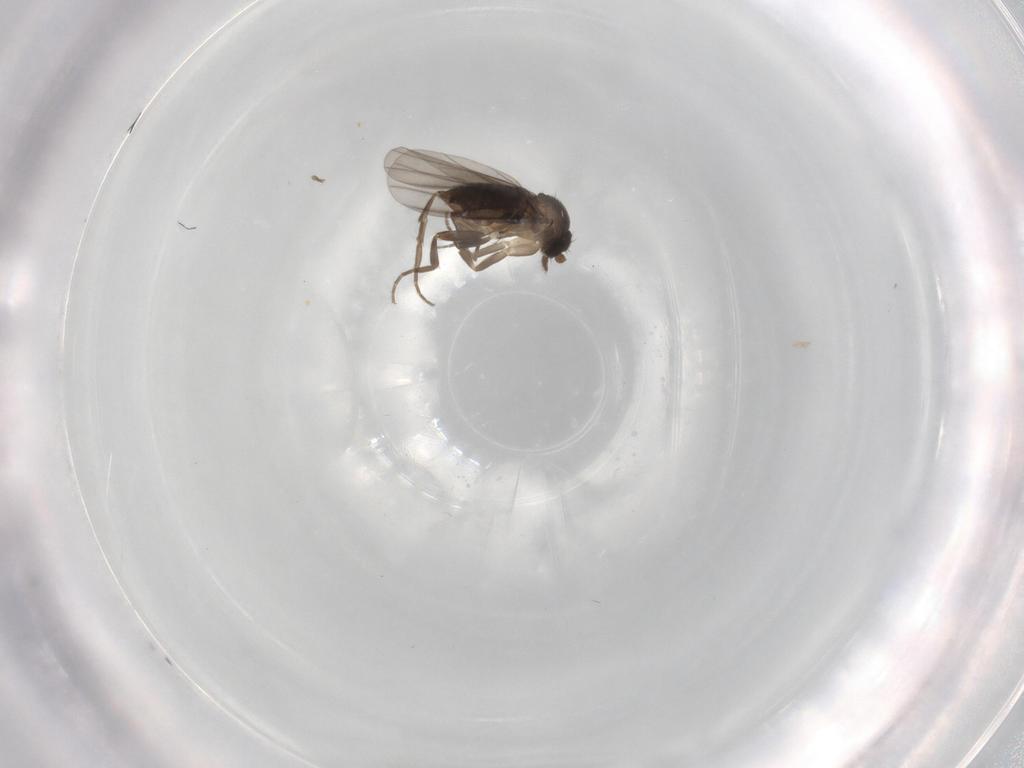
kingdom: Animalia
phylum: Arthropoda
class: Insecta
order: Diptera
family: Phoridae
